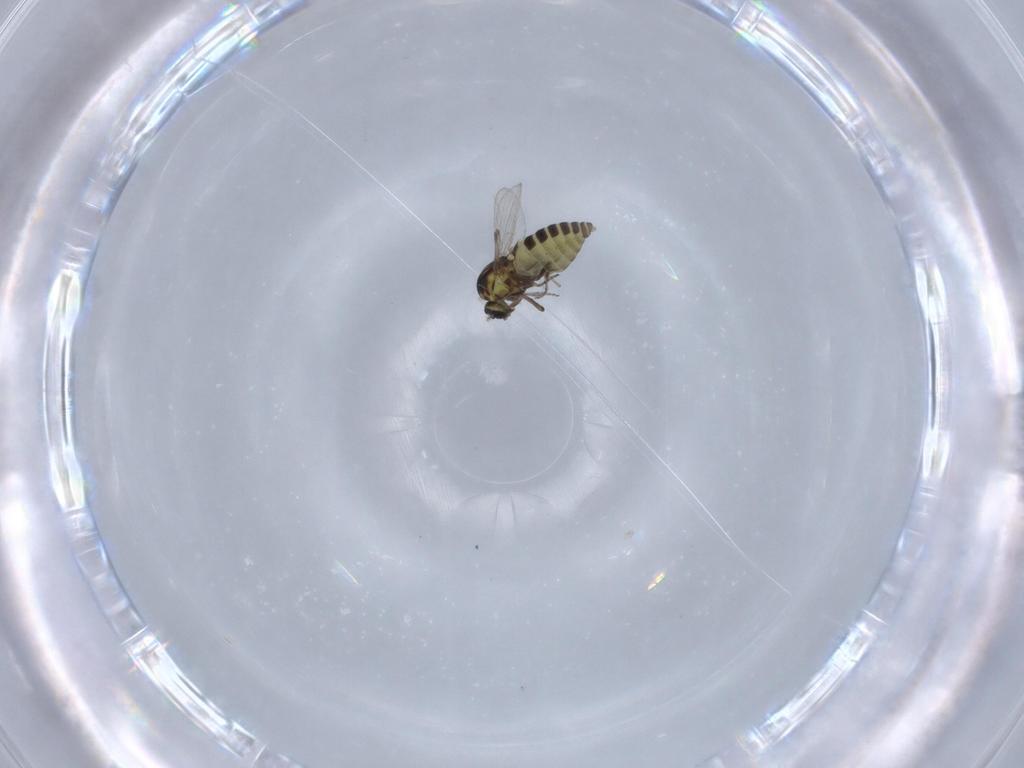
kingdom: Animalia
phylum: Arthropoda
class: Insecta
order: Diptera
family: Ceratopogonidae
